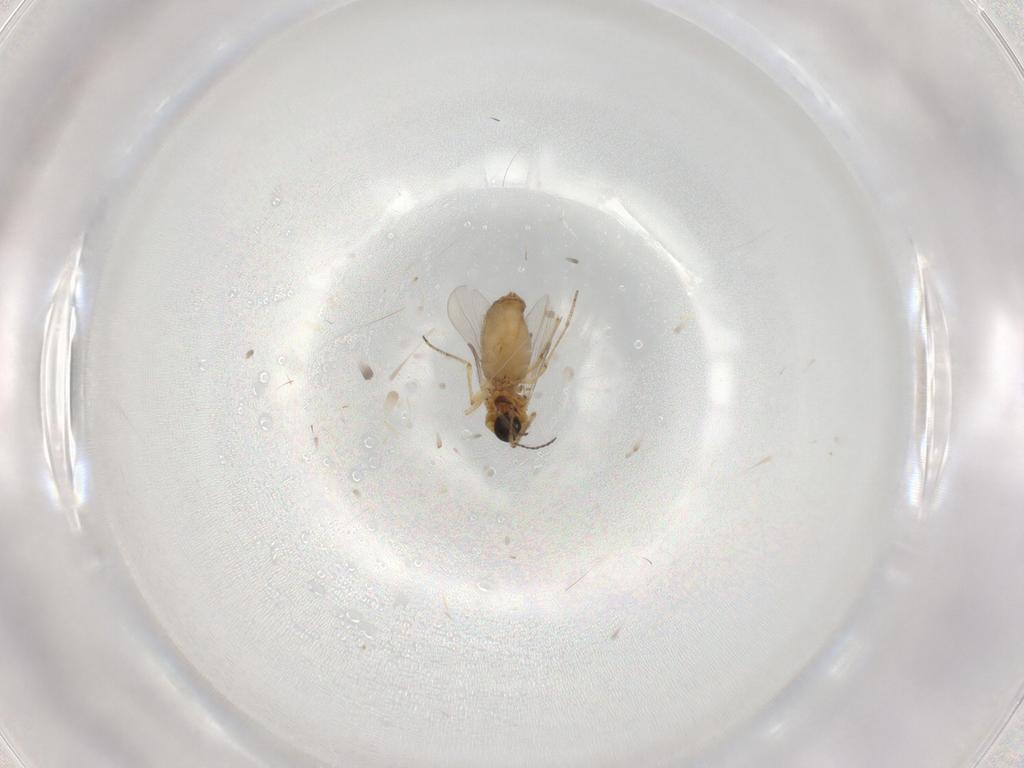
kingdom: Animalia
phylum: Arthropoda
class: Insecta
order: Diptera
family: Ceratopogonidae
